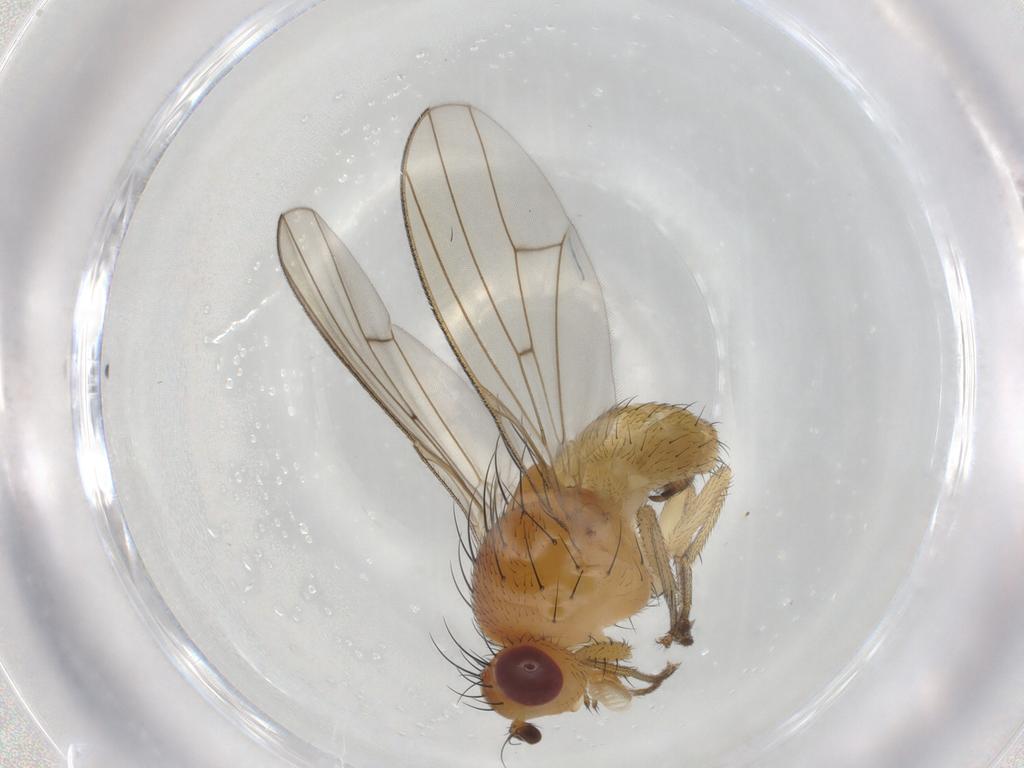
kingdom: Animalia
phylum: Arthropoda
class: Insecta
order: Diptera
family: Lauxaniidae
